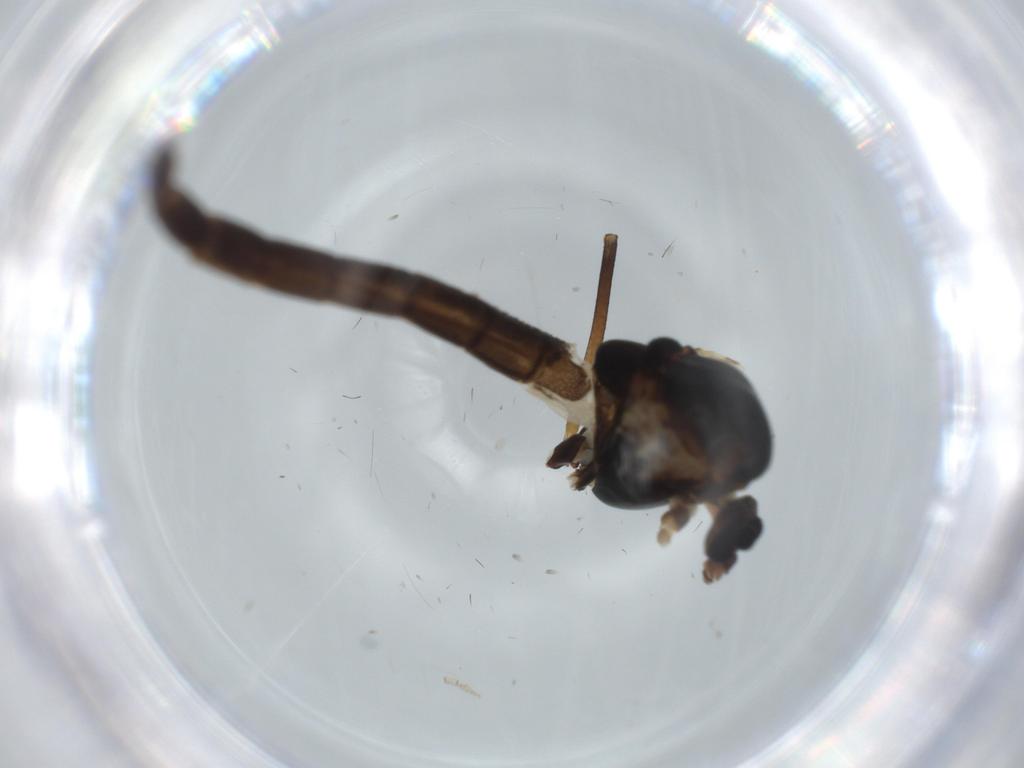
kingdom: Animalia
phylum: Arthropoda
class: Insecta
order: Diptera
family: Chironomidae
